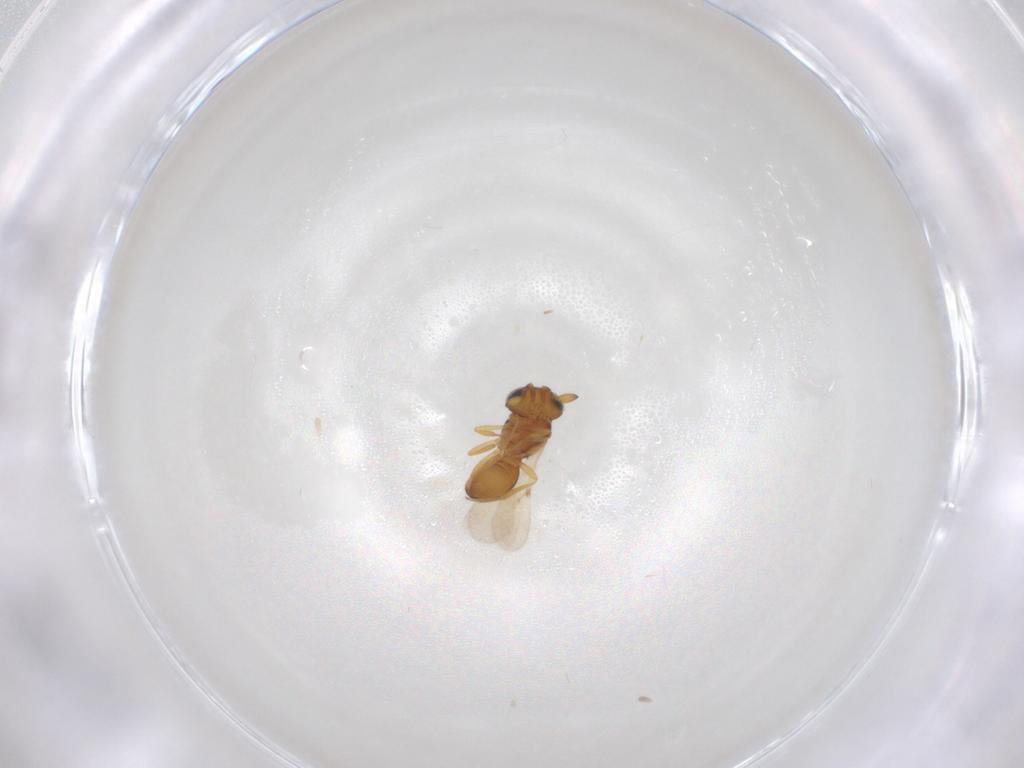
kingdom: Animalia
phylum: Arthropoda
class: Insecta
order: Hymenoptera
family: Scelionidae
